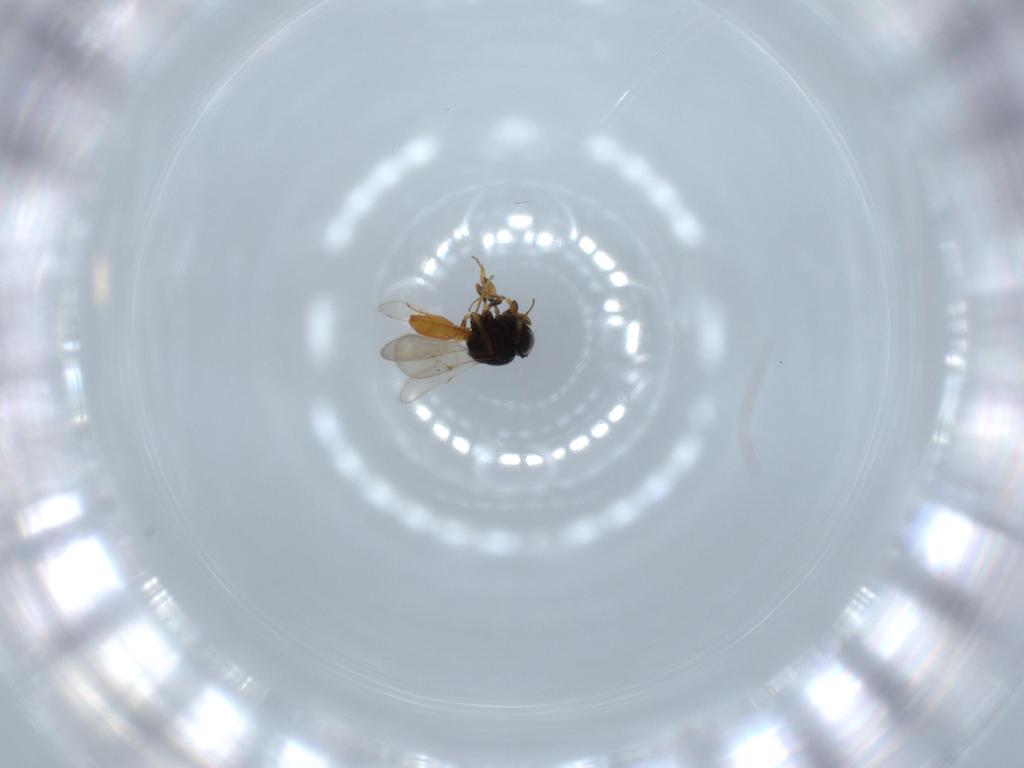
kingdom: Animalia
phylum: Arthropoda
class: Insecta
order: Hymenoptera
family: Scelionidae
